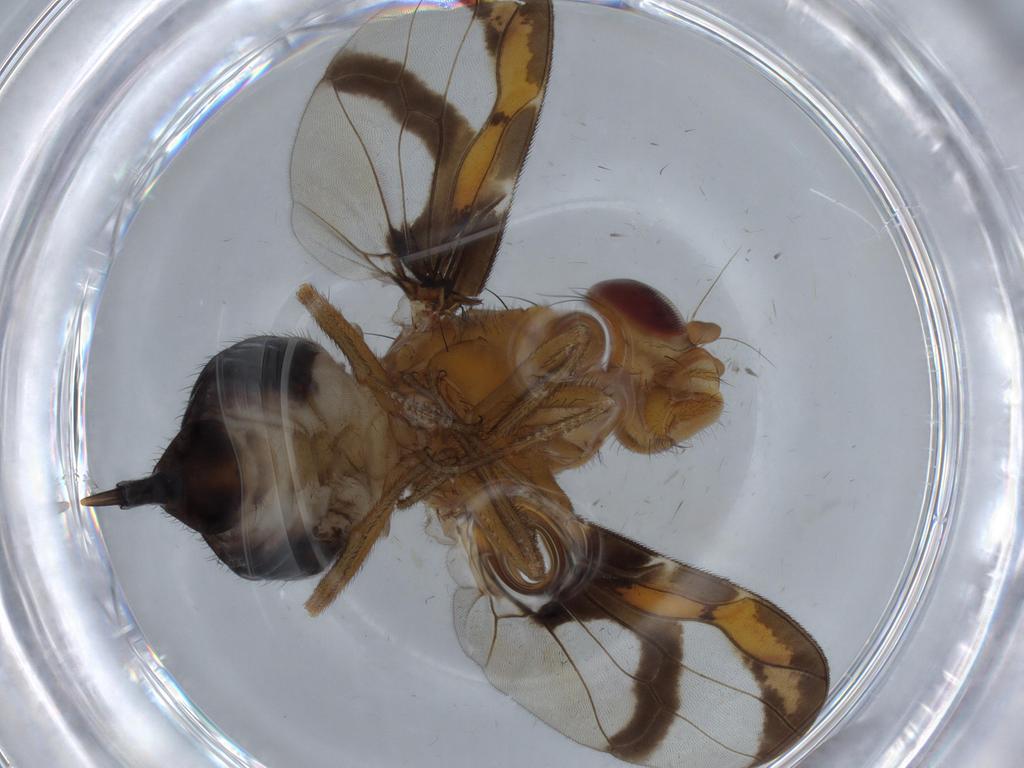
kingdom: Animalia
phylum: Arthropoda
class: Insecta
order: Diptera
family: Ulidiidae
